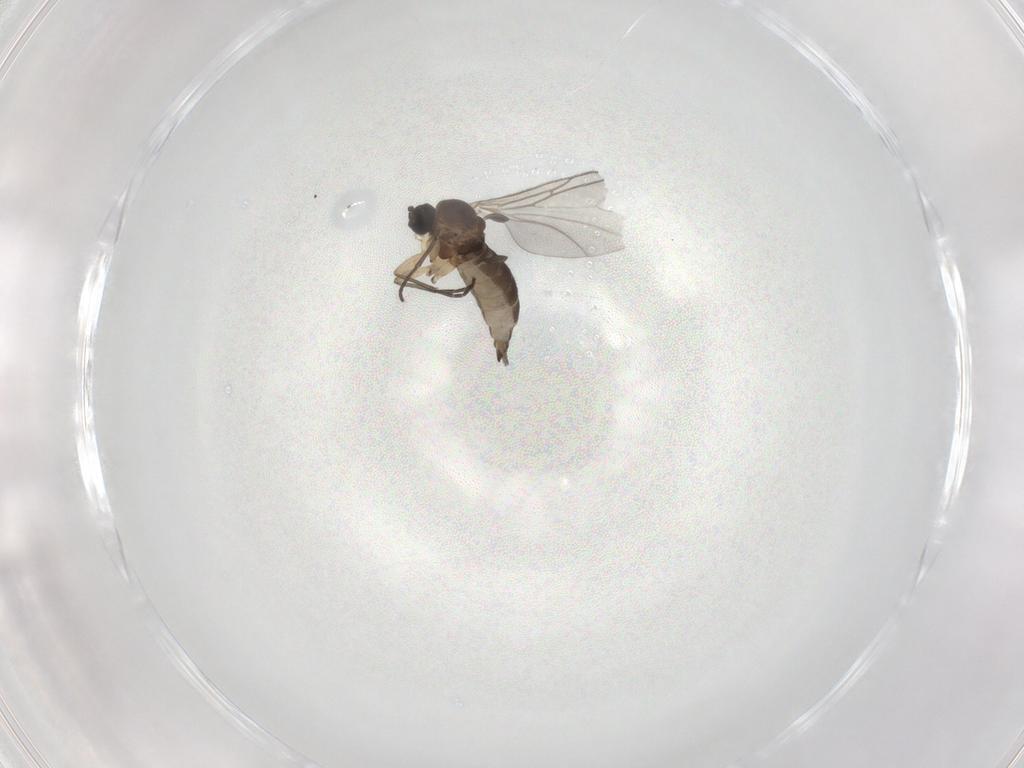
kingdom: Animalia
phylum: Arthropoda
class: Insecta
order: Diptera
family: Sciaridae
